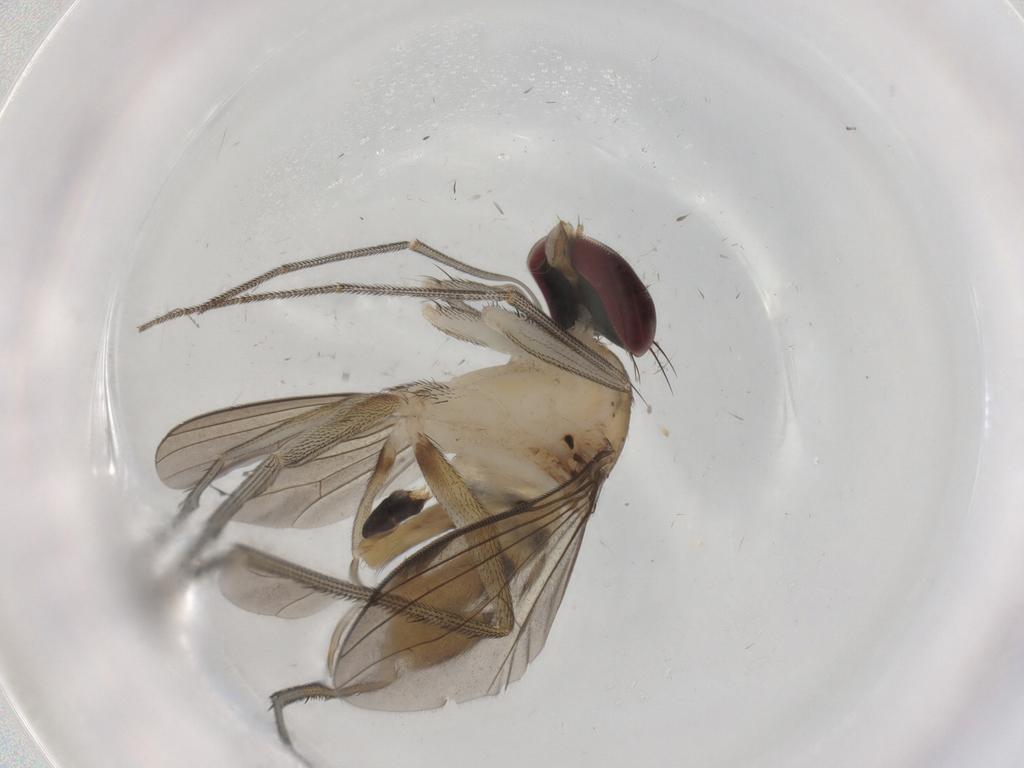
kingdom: Animalia
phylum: Arthropoda
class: Insecta
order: Diptera
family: Dolichopodidae
